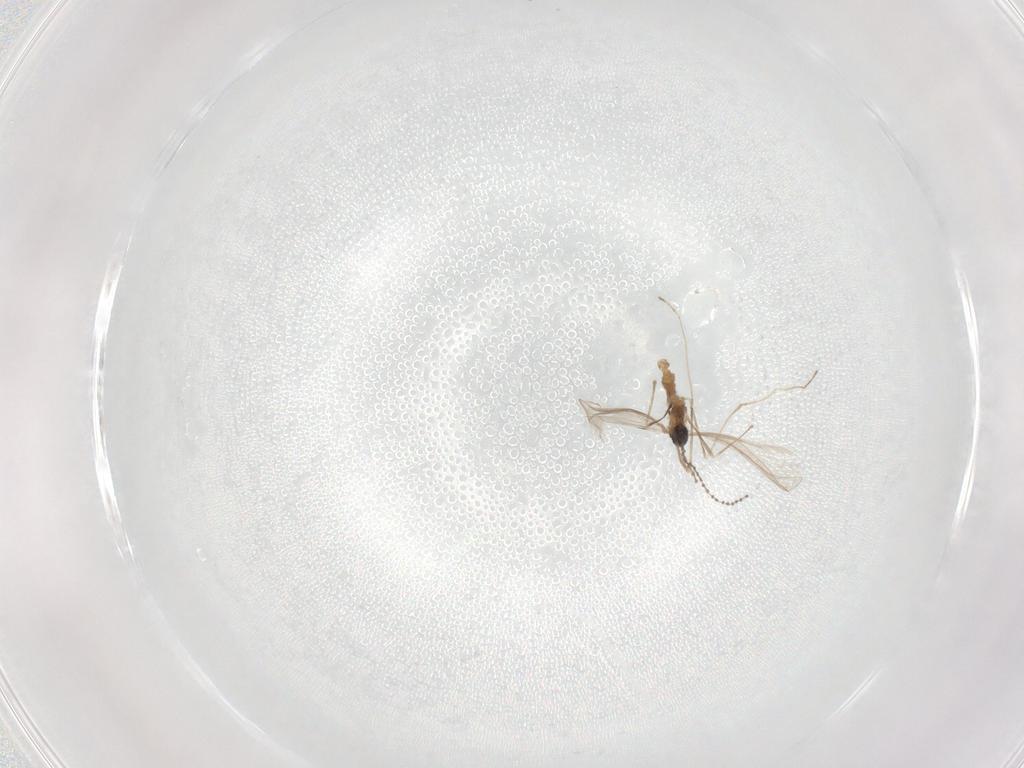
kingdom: Animalia
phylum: Arthropoda
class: Insecta
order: Diptera
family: Cecidomyiidae
